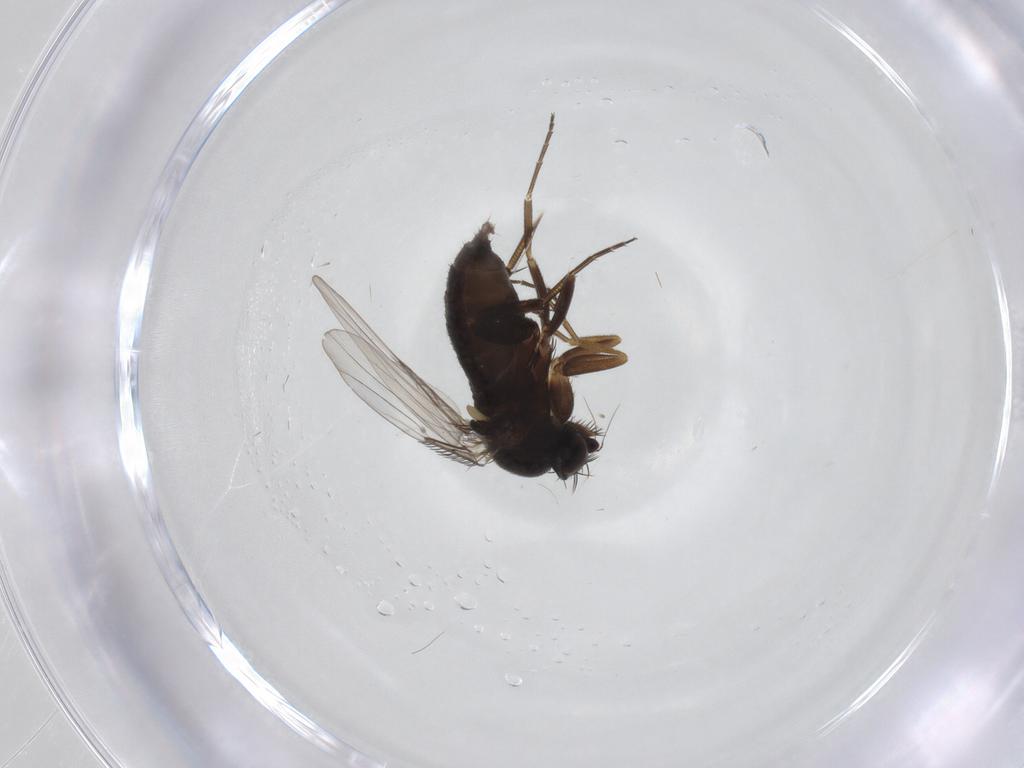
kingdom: Animalia
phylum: Arthropoda
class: Insecta
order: Diptera
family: Phoridae
